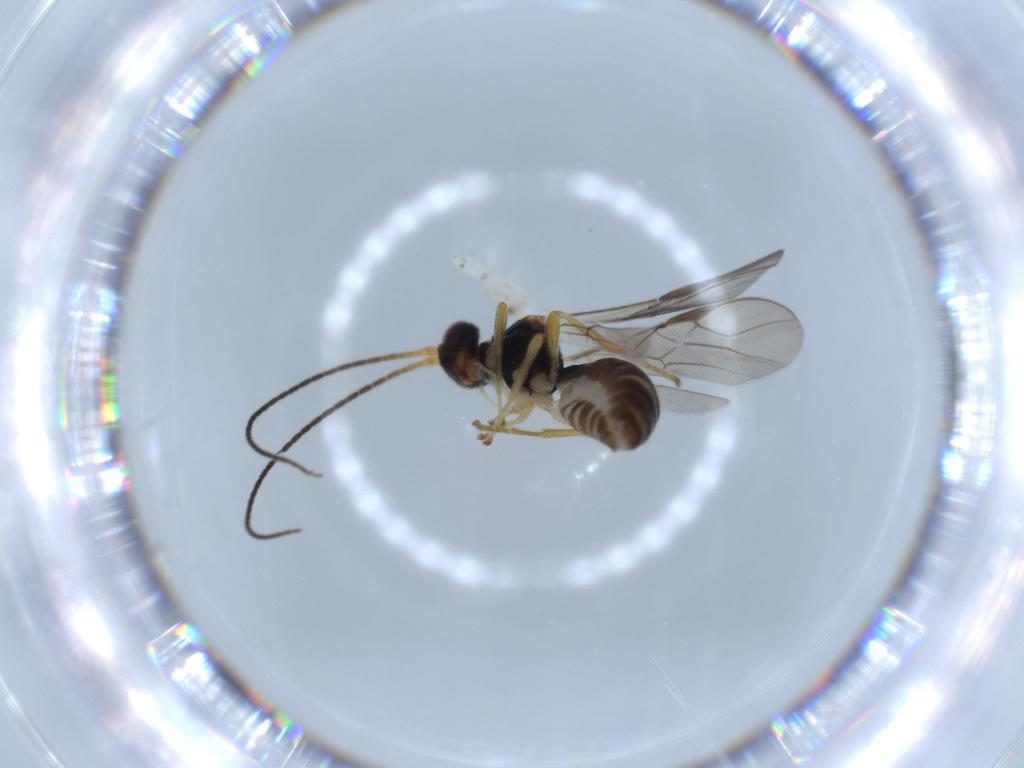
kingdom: Animalia
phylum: Arthropoda
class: Insecta
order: Hymenoptera
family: Braconidae
